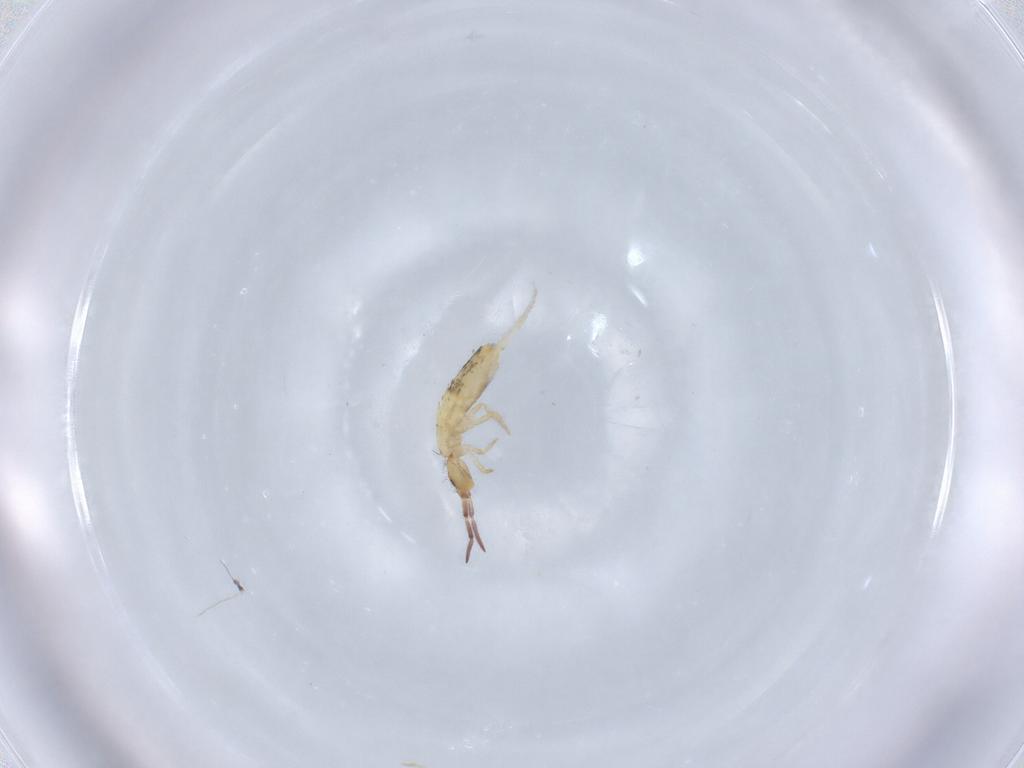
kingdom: Animalia
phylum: Arthropoda
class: Collembola
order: Entomobryomorpha
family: Entomobryidae
